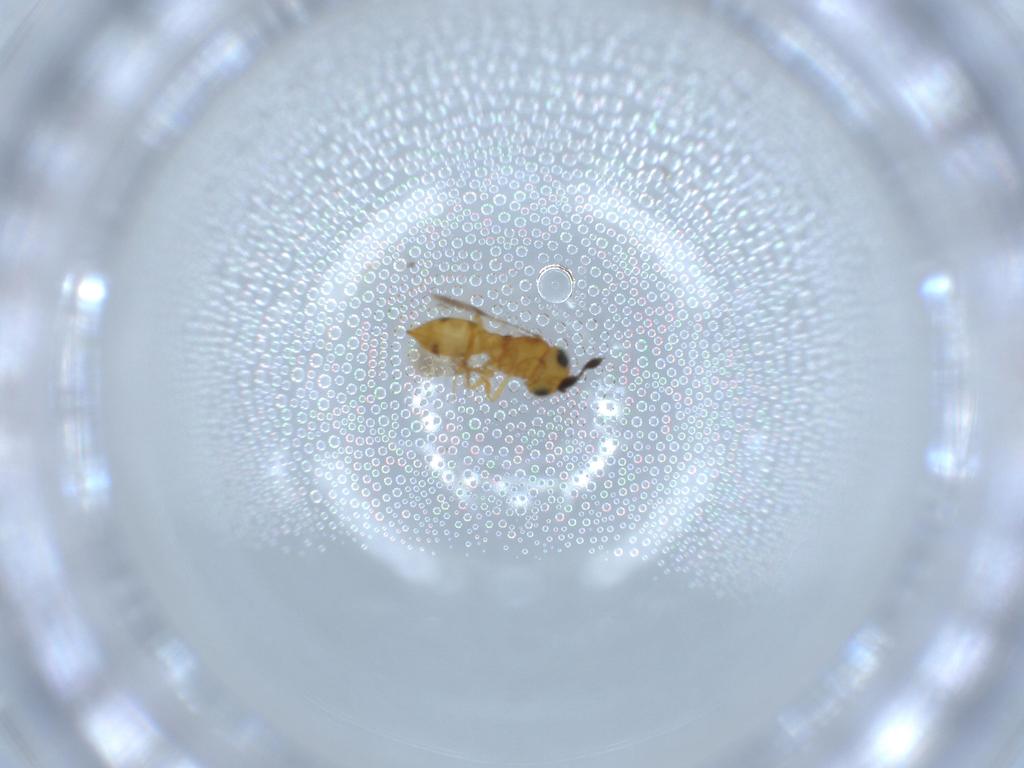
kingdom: Animalia
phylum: Arthropoda
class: Insecta
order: Hymenoptera
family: Scelionidae
